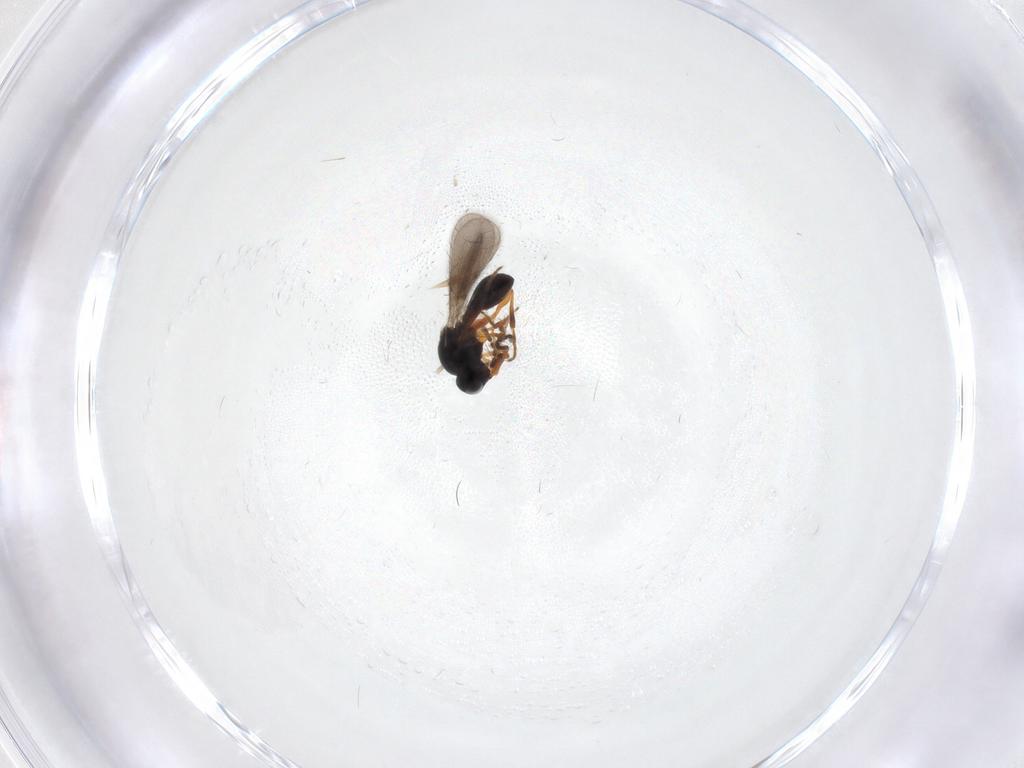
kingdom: Animalia
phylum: Arthropoda
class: Insecta
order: Hymenoptera
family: Platygastridae
